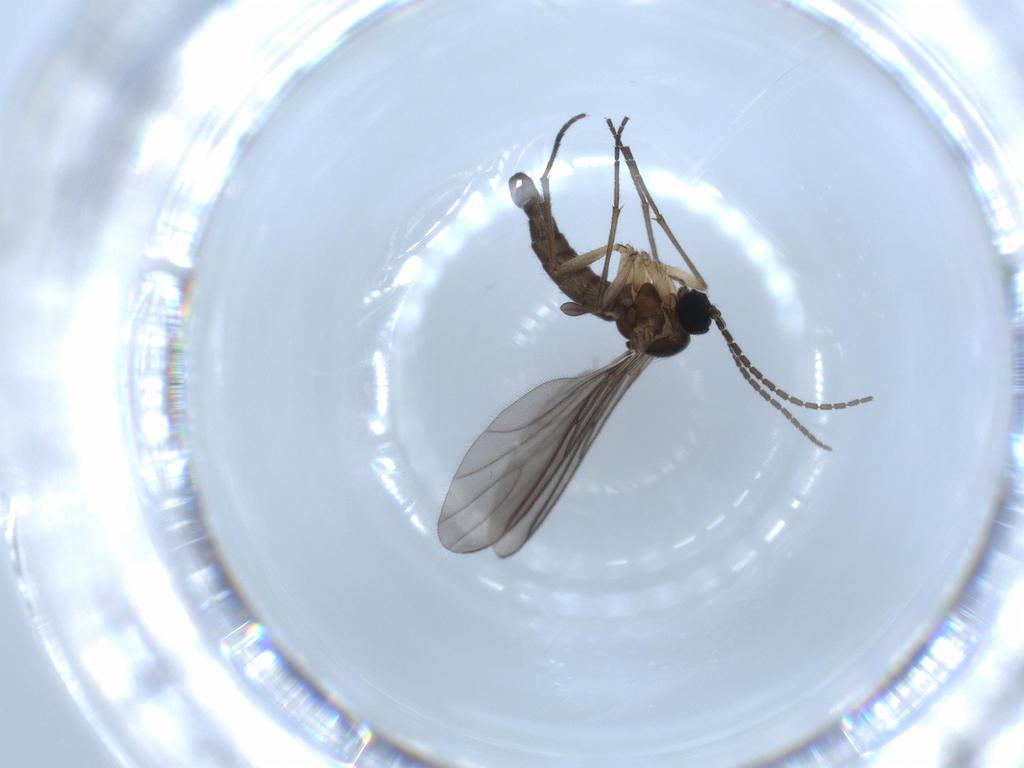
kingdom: Animalia
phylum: Arthropoda
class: Insecta
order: Diptera
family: Sciaridae
